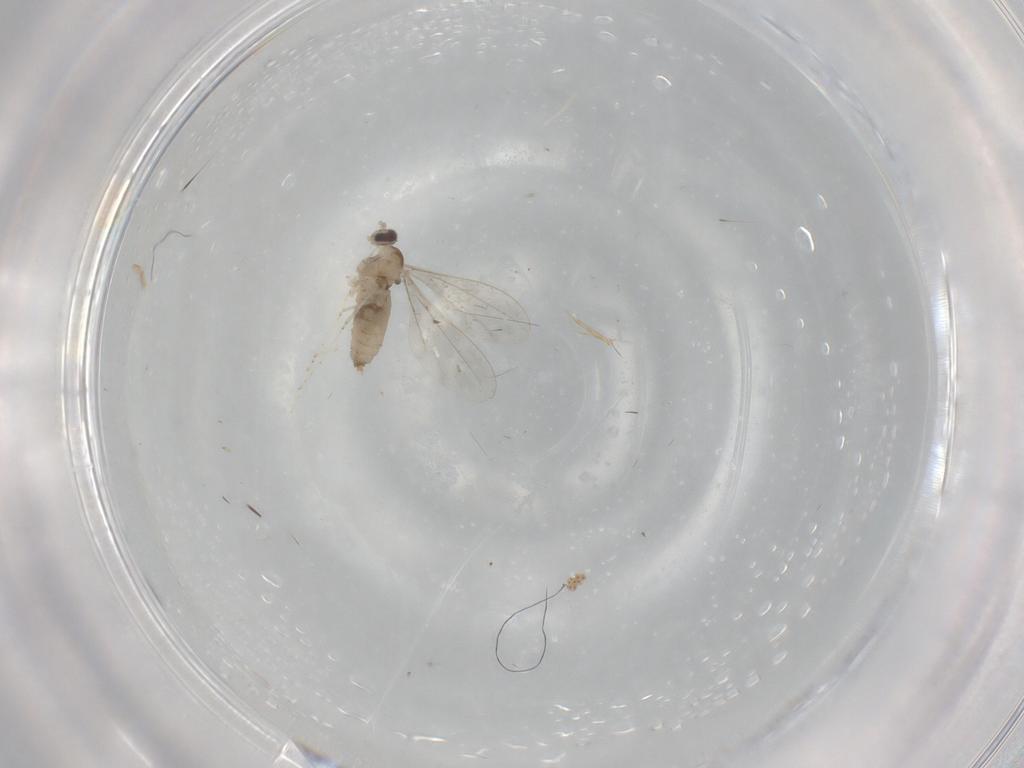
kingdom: Animalia
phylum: Arthropoda
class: Insecta
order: Diptera
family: Cecidomyiidae
